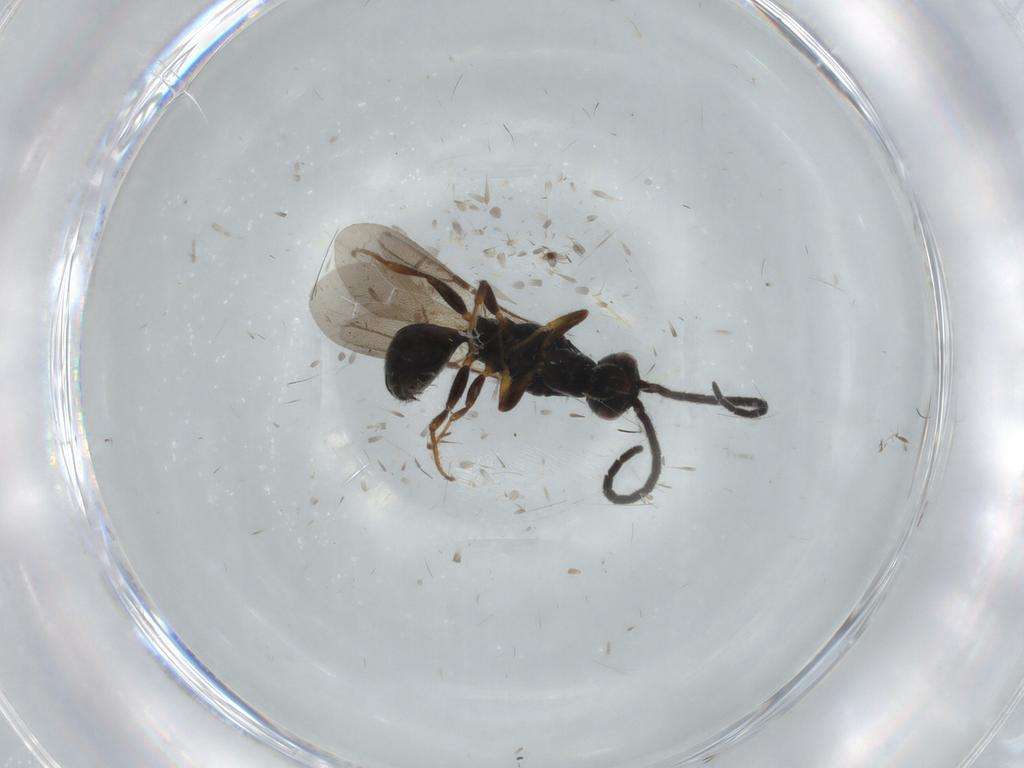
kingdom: Animalia
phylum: Arthropoda
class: Insecta
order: Hymenoptera
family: Bethylidae
